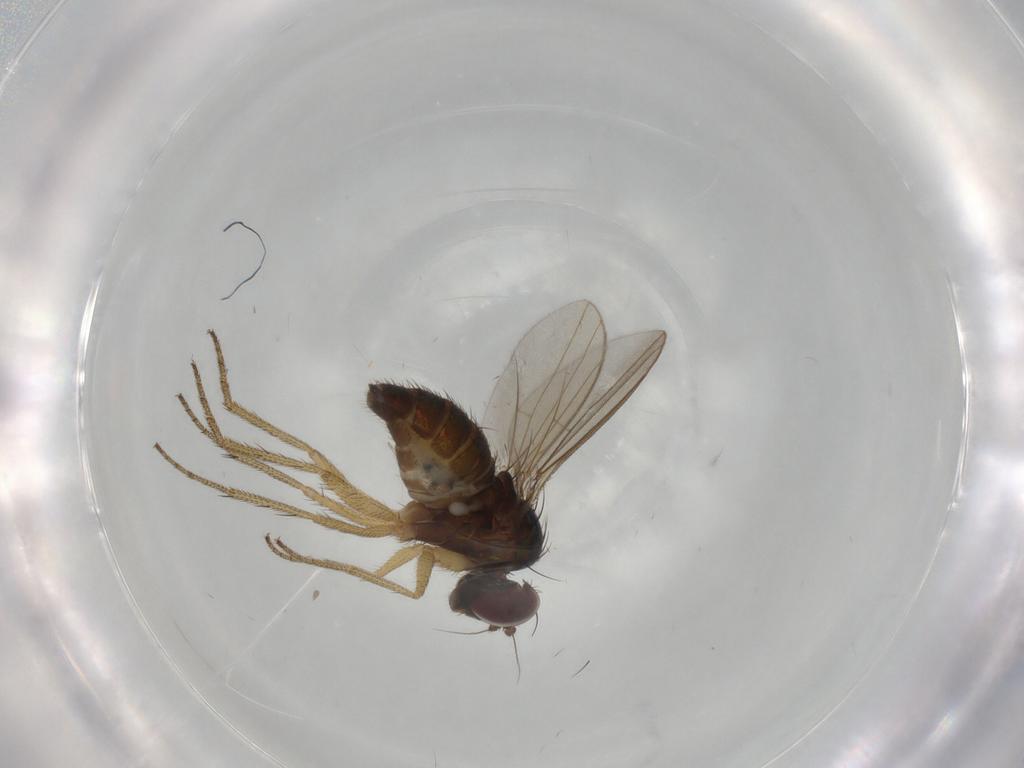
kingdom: Animalia
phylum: Arthropoda
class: Insecta
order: Diptera
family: Dolichopodidae
